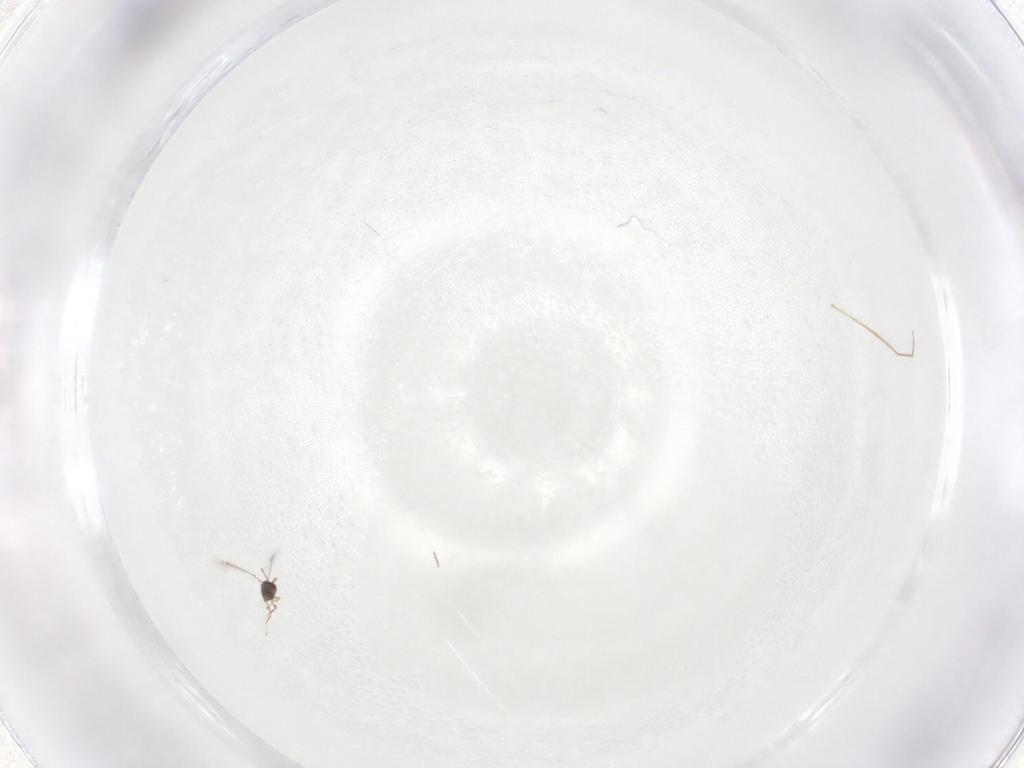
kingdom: Animalia
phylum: Arthropoda
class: Insecta
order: Hymenoptera
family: Mymaridae
